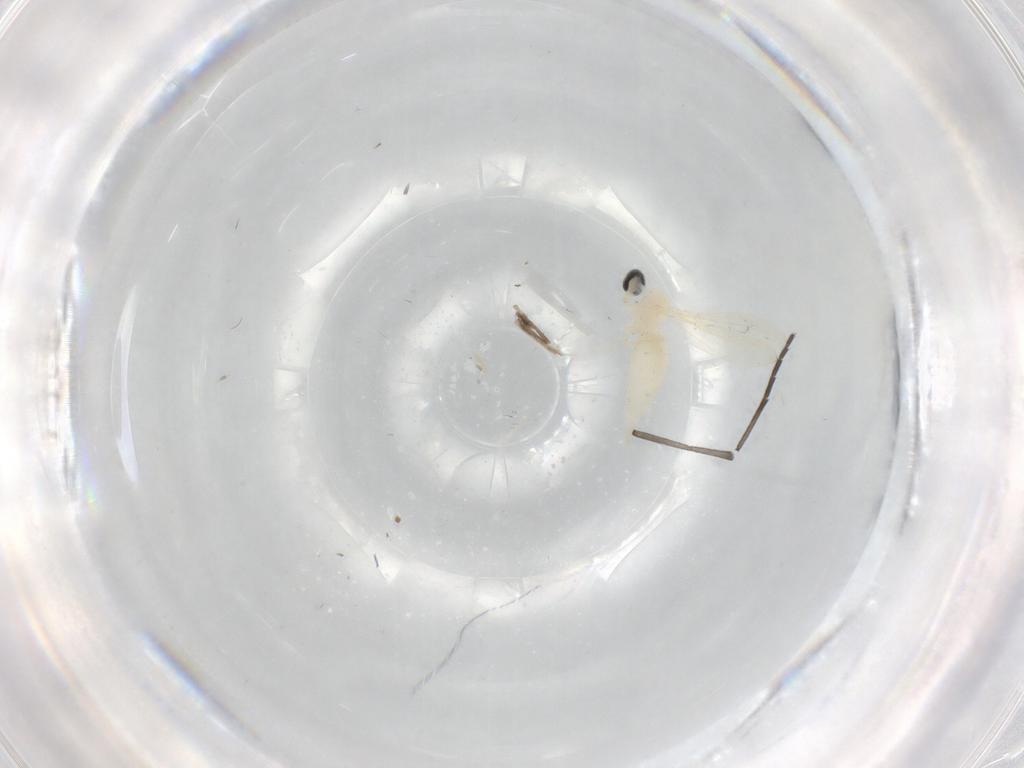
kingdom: Animalia
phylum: Arthropoda
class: Insecta
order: Diptera
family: Cecidomyiidae
